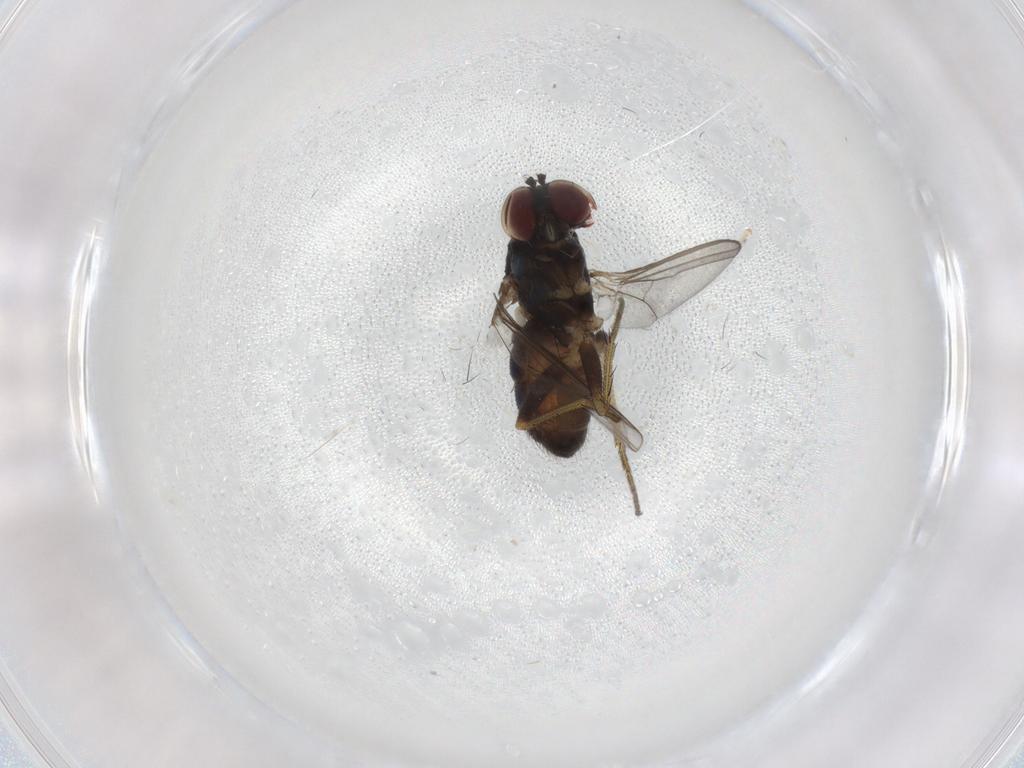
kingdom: Animalia
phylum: Arthropoda
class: Insecta
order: Diptera
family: Dolichopodidae
